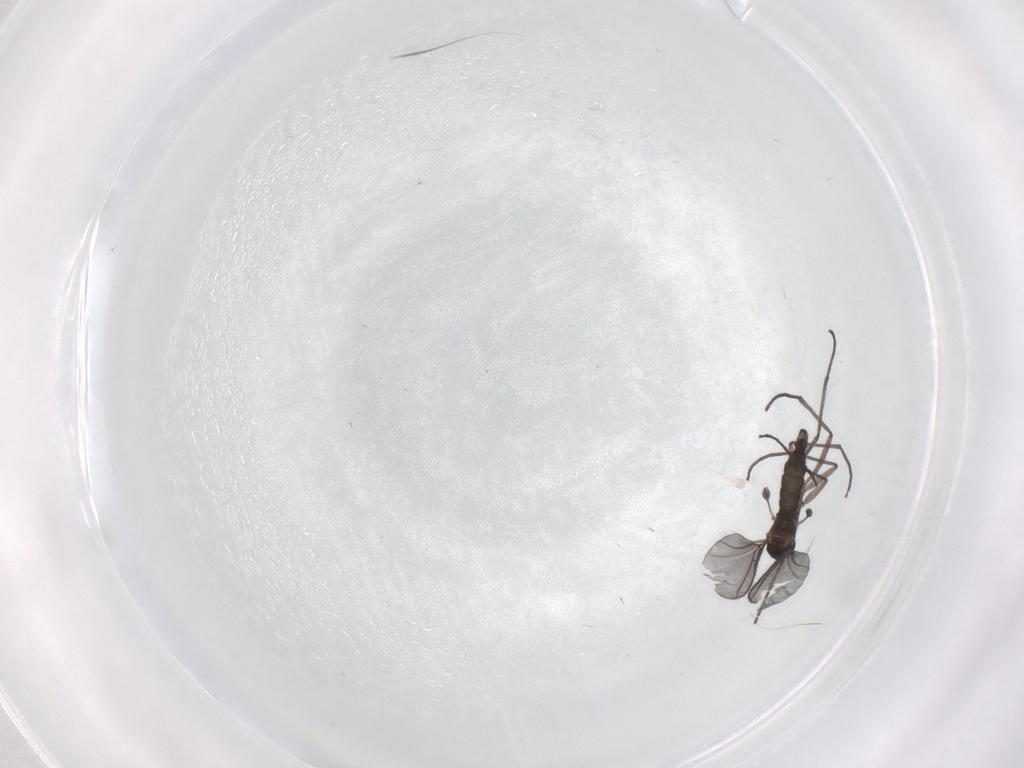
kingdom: Animalia
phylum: Arthropoda
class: Insecta
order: Diptera
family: Sciaridae
